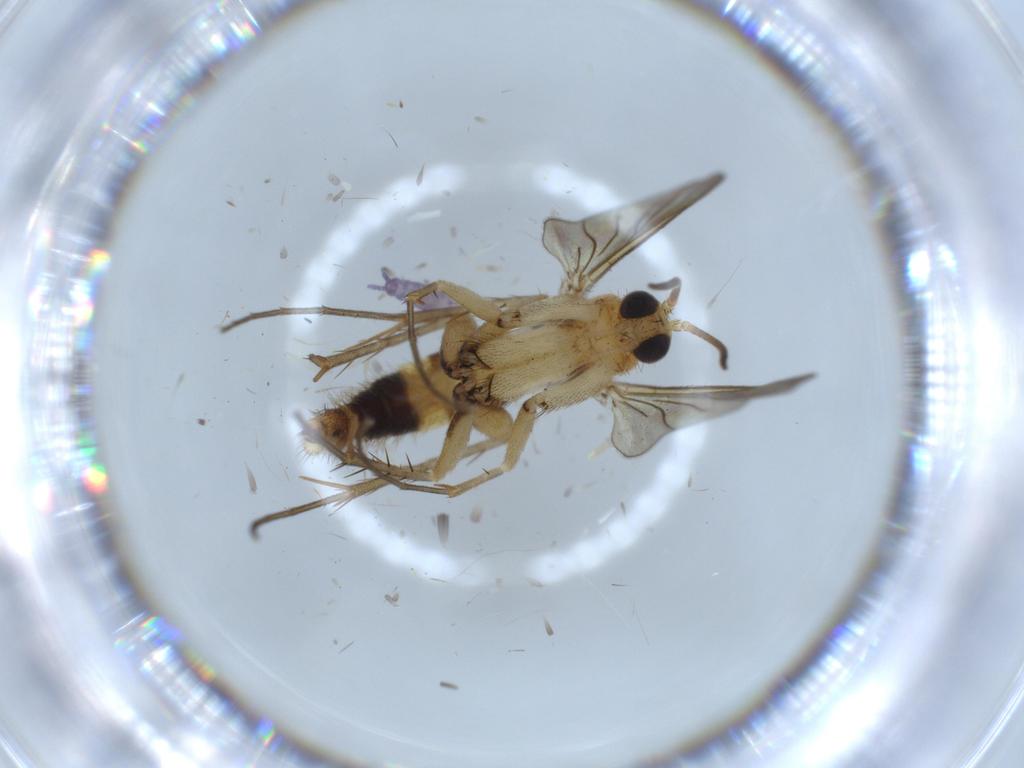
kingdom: Animalia
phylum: Arthropoda
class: Insecta
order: Diptera
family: Cecidomyiidae
